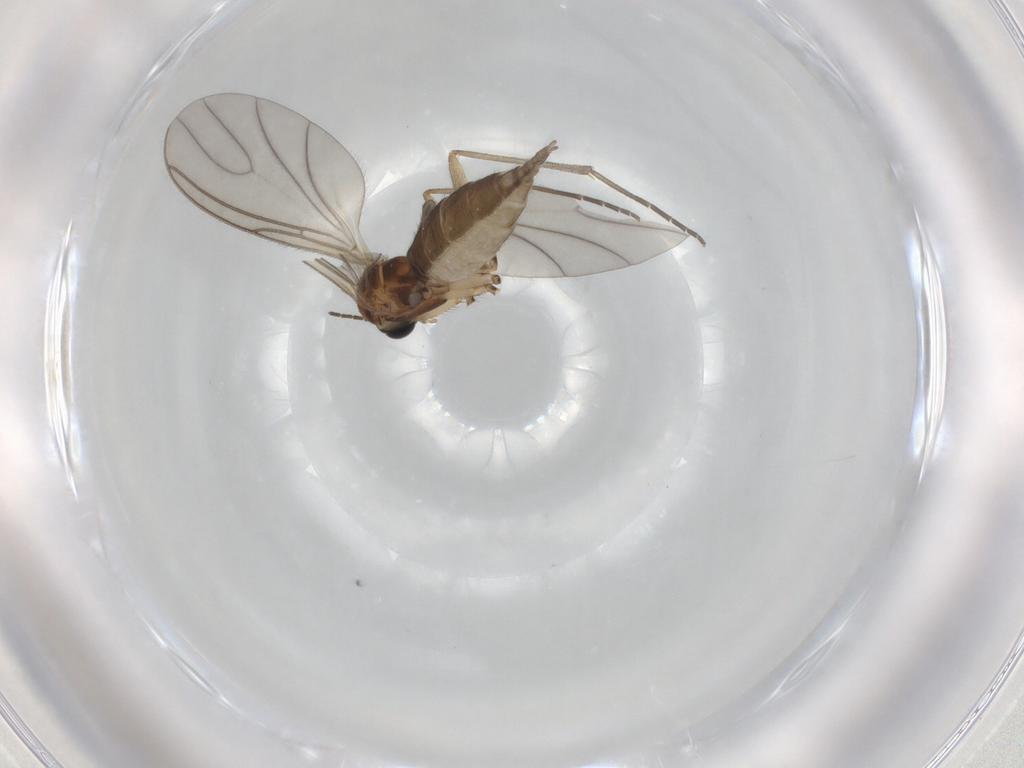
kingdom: Animalia
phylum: Arthropoda
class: Insecta
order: Diptera
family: Sciaridae
